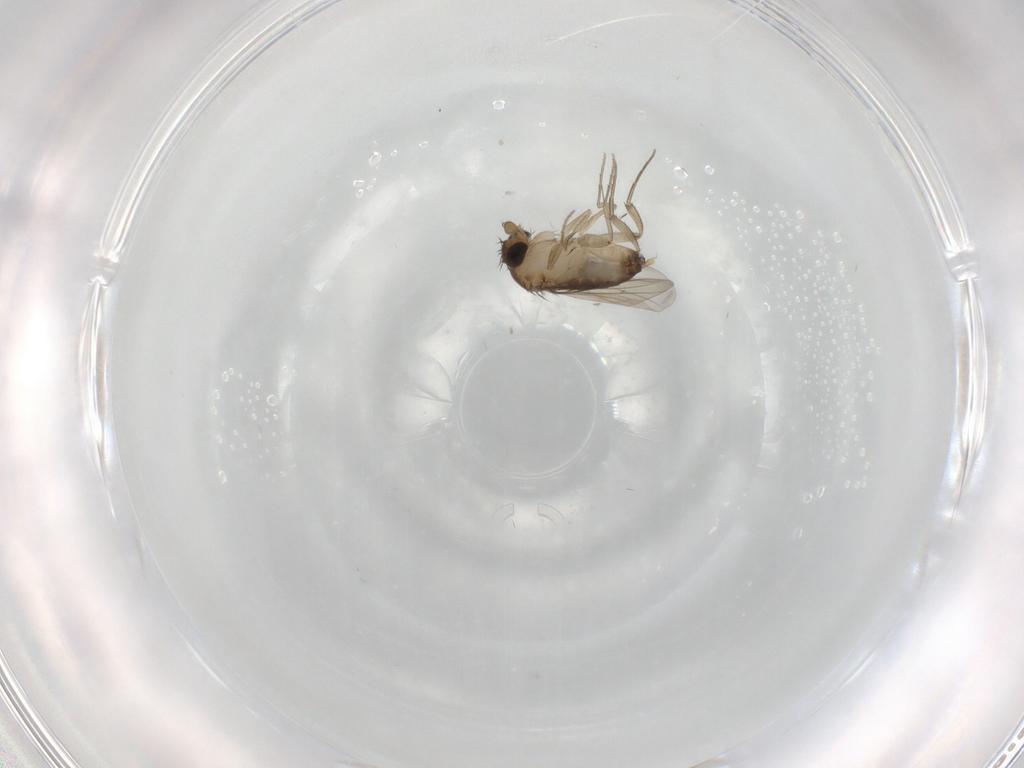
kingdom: Animalia
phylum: Arthropoda
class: Insecta
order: Diptera
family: Phoridae
